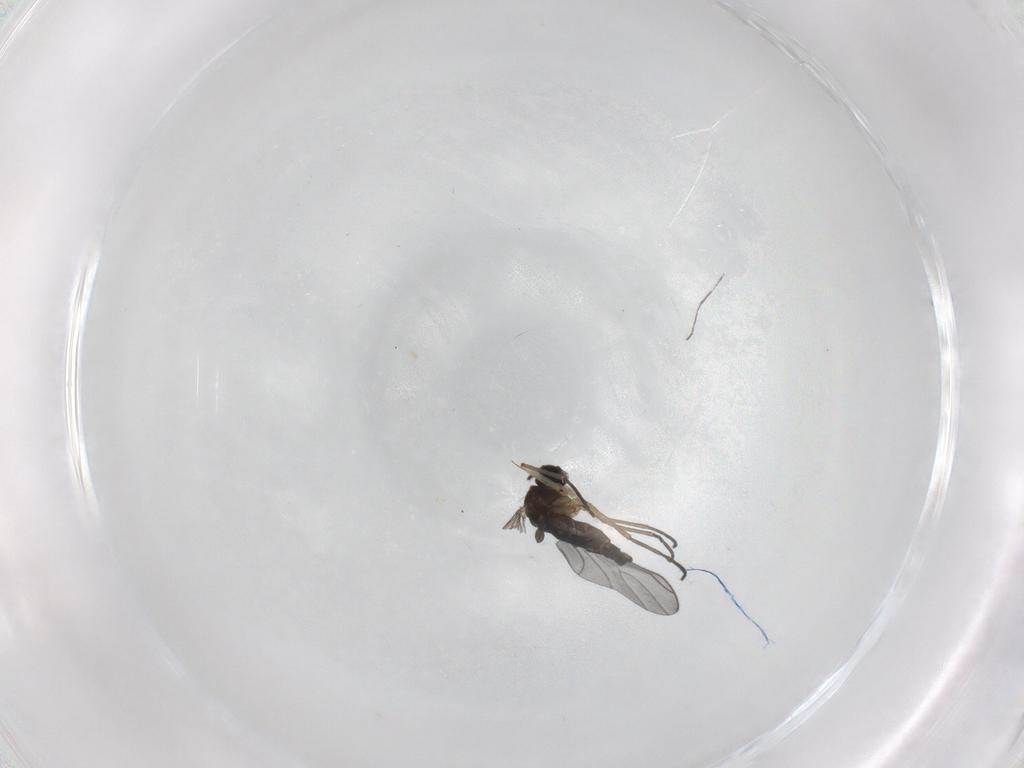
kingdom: Animalia
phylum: Arthropoda
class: Insecta
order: Diptera
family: Sciaridae
